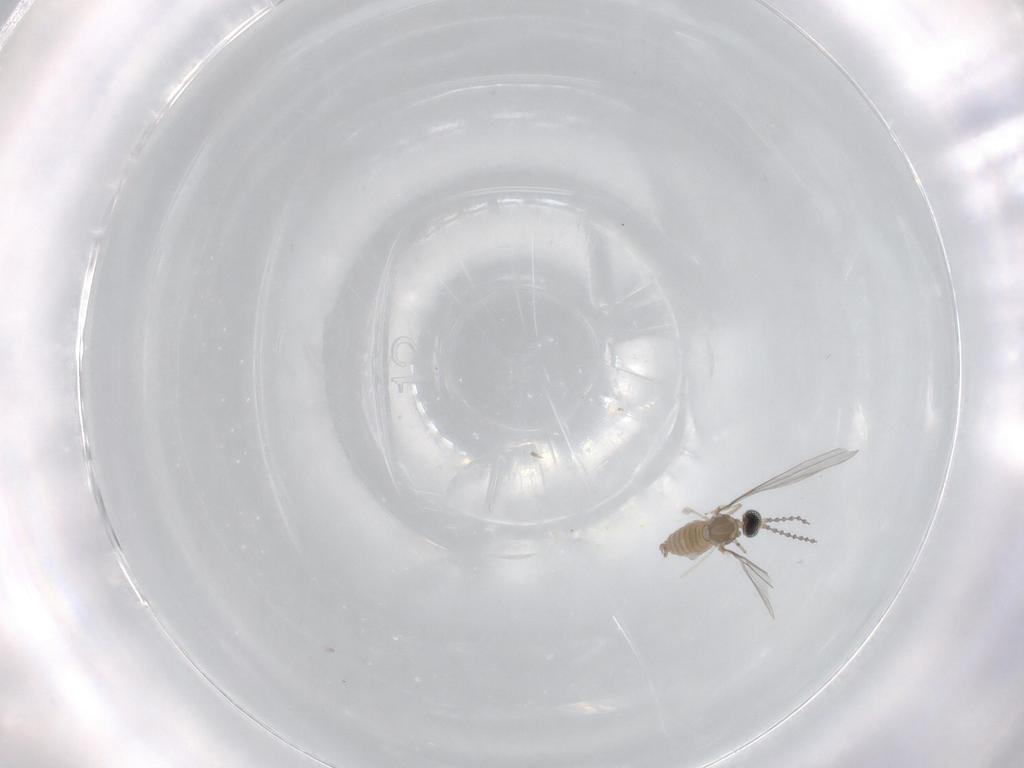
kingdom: Animalia
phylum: Arthropoda
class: Insecta
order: Diptera
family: Cecidomyiidae
